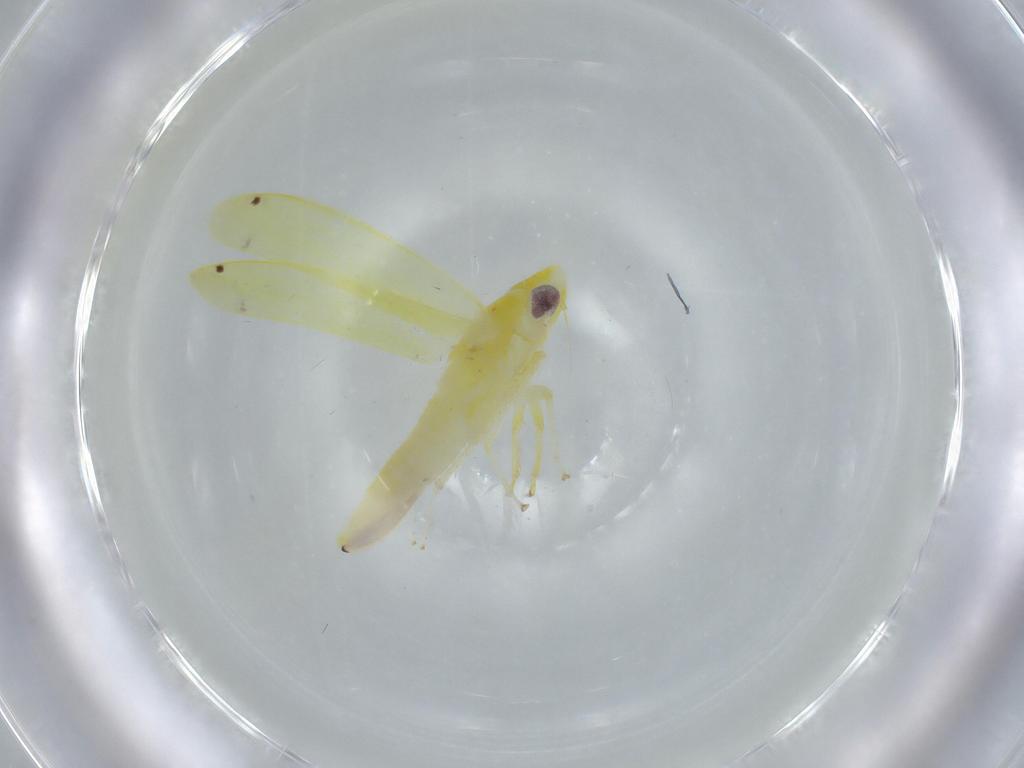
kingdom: Animalia
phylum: Arthropoda
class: Insecta
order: Hemiptera
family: Cicadellidae
